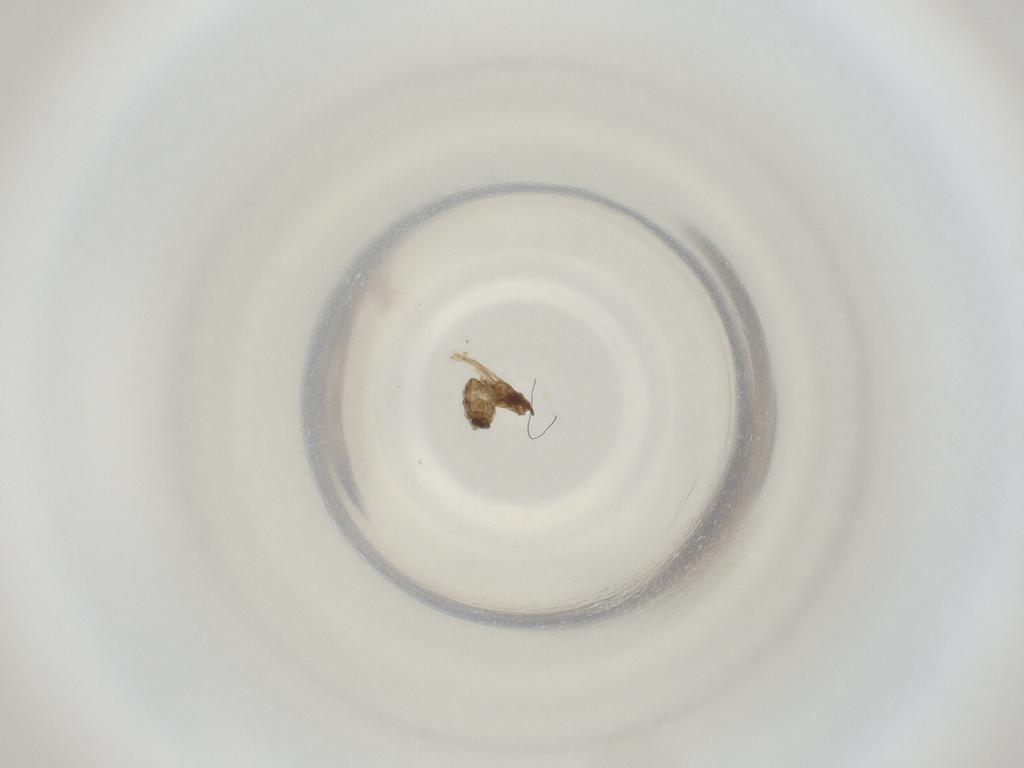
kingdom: Animalia
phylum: Arthropoda
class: Insecta
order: Diptera
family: Cecidomyiidae
